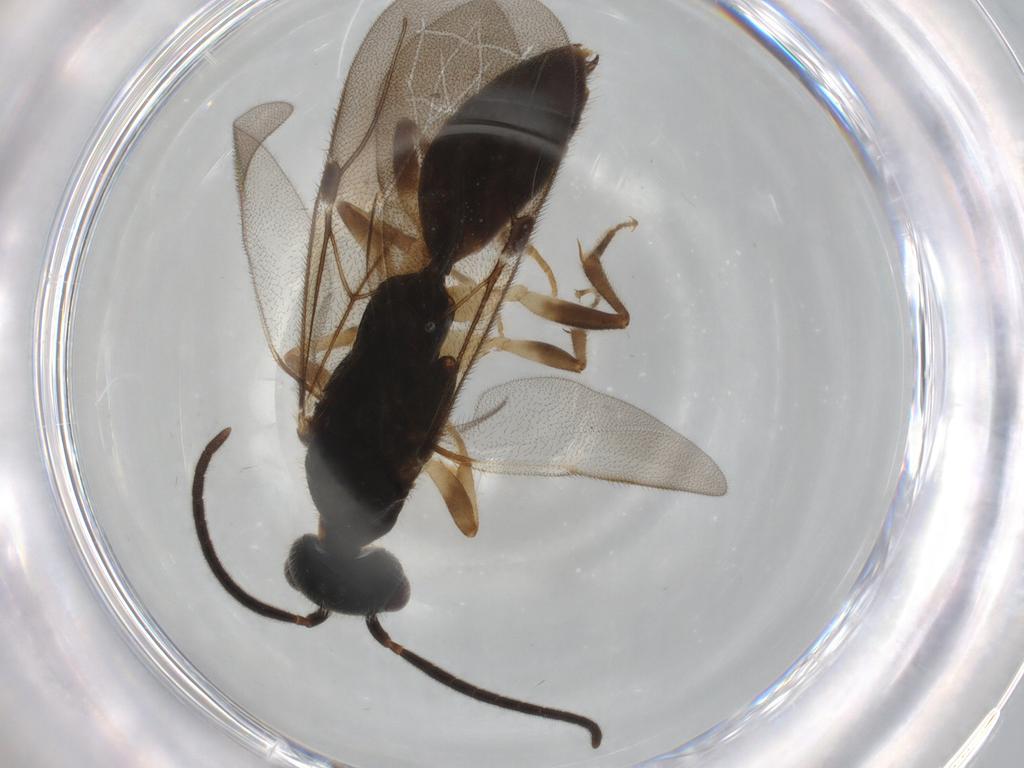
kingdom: Animalia
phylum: Arthropoda
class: Insecta
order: Hymenoptera
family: Bethylidae
